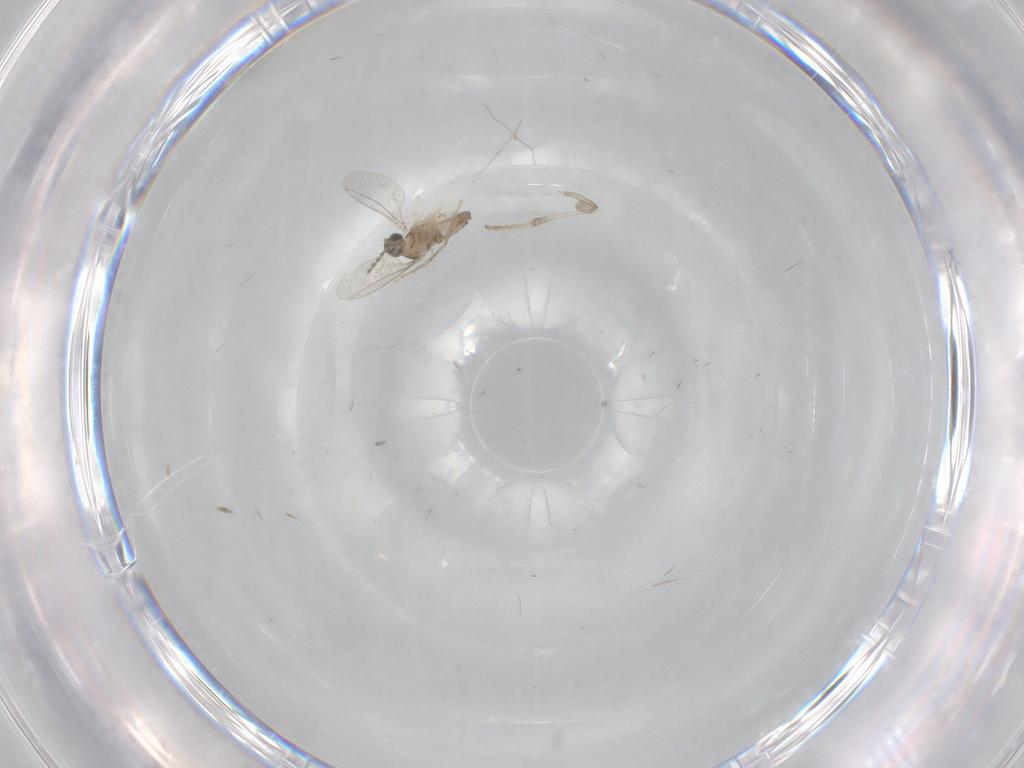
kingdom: Animalia
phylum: Arthropoda
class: Insecta
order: Diptera
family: Cecidomyiidae
